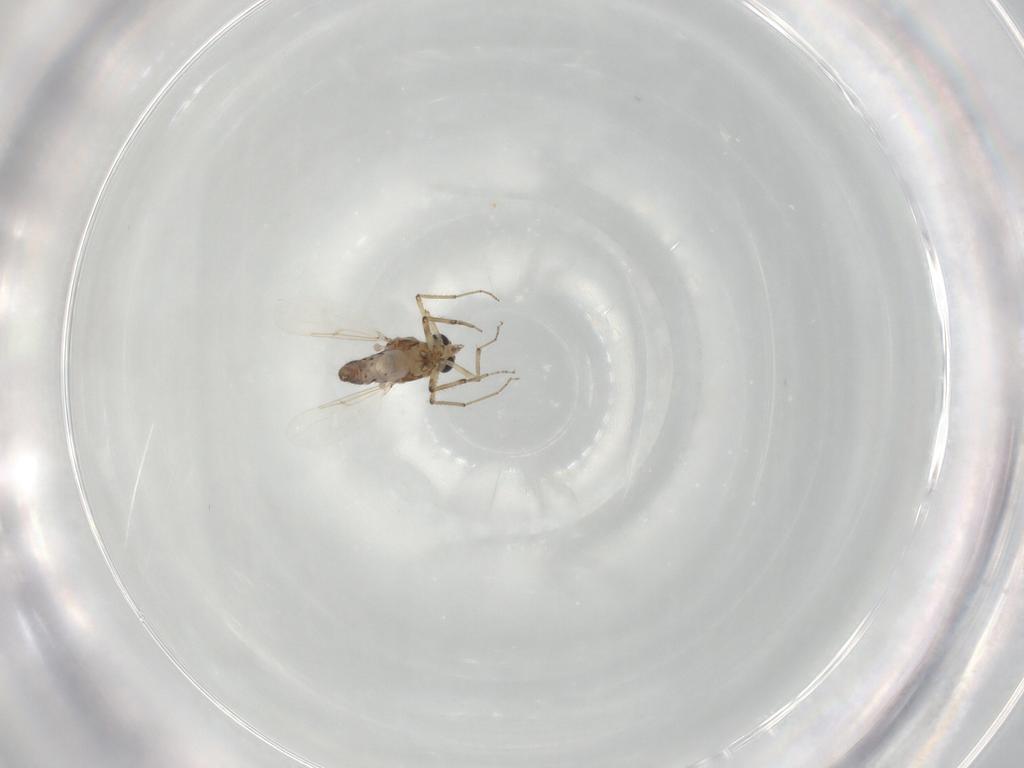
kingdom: Animalia
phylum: Arthropoda
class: Insecta
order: Diptera
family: Ceratopogonidae
